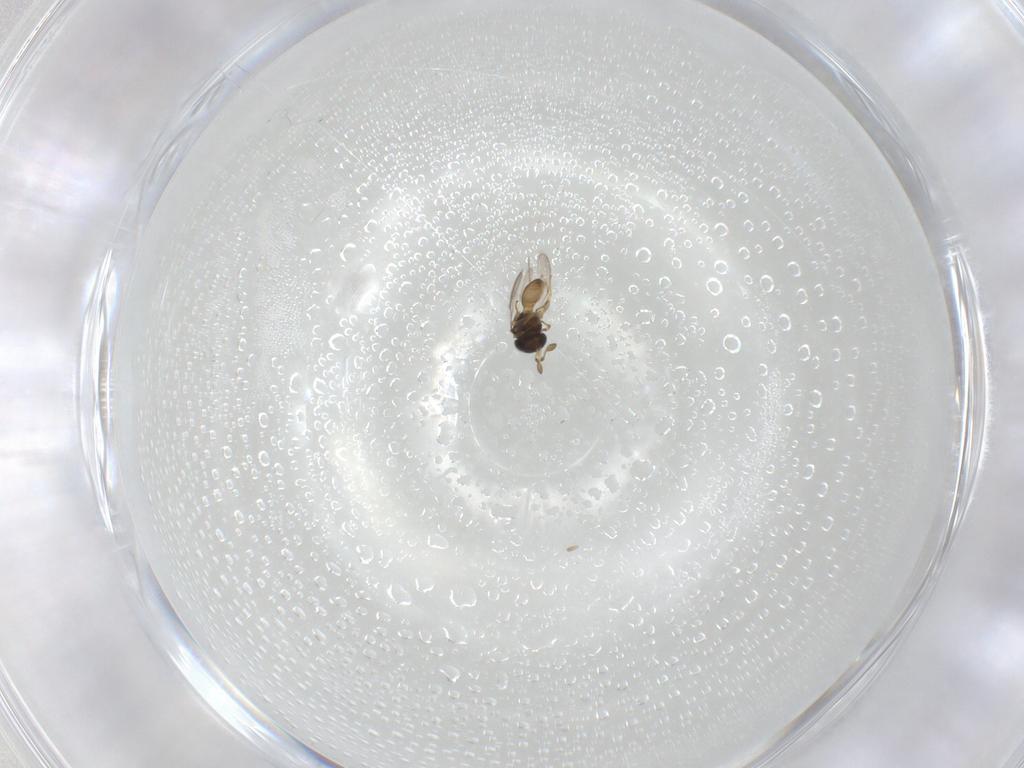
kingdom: Animalia
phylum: Arthropoda
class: Insecta
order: Hymenoptera
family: Scelionidae
